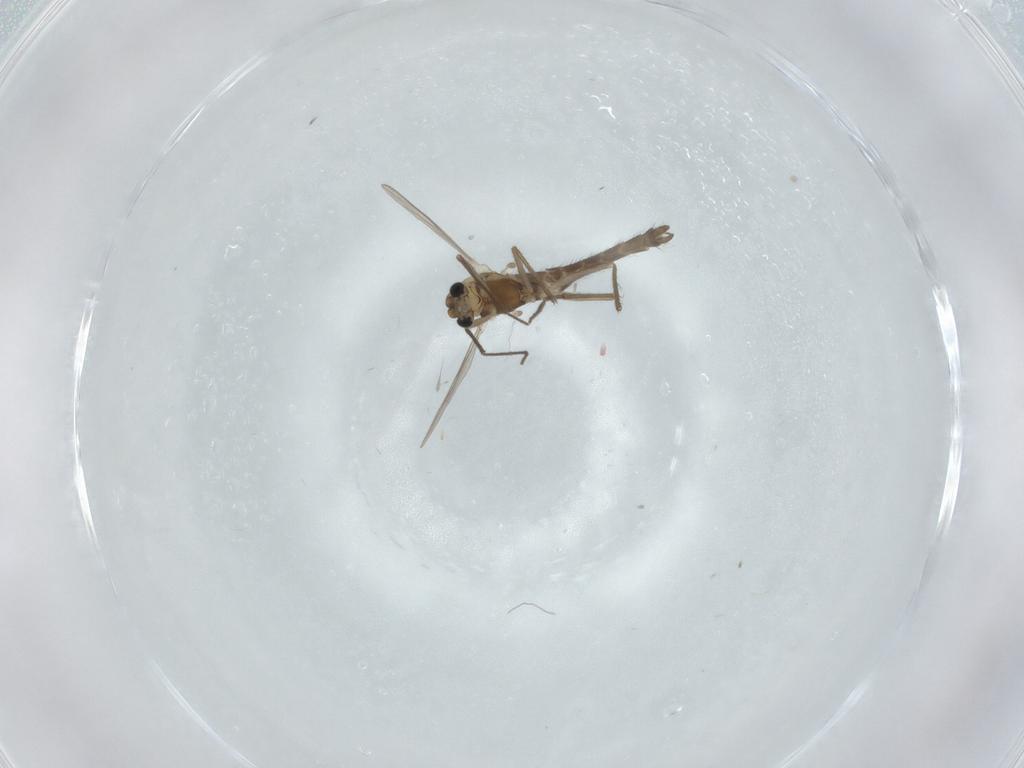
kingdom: Animalia
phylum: Arthropoda
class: Insecta
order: Diptera
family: Chironomidae
